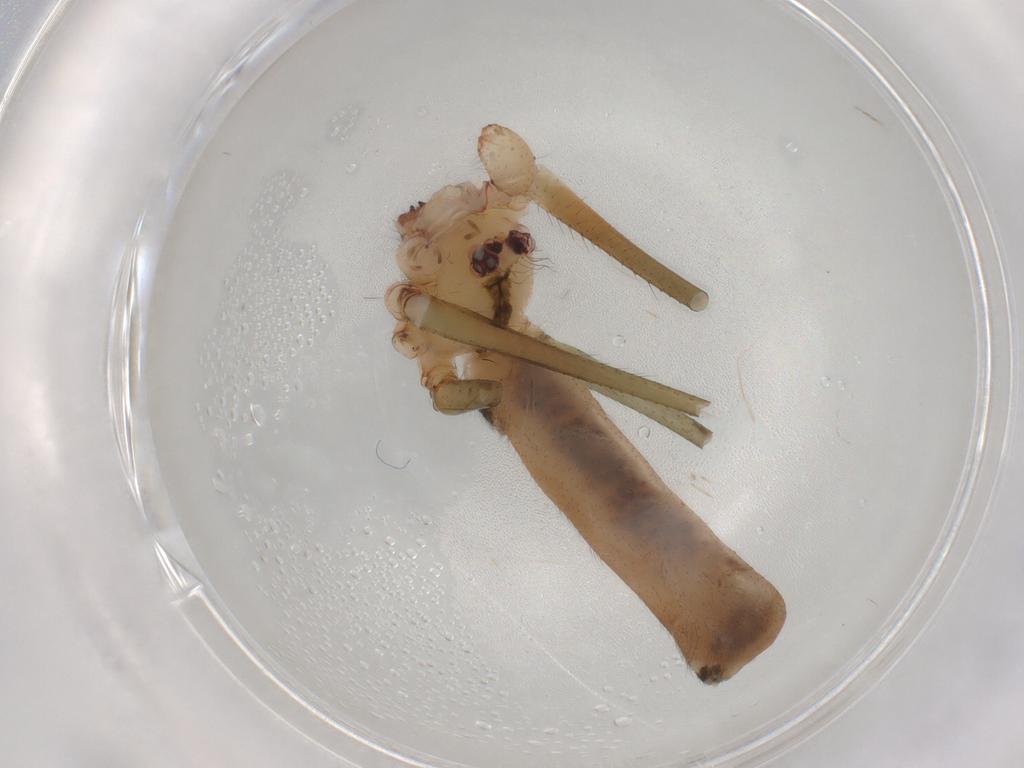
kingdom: Animalia
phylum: Arthropoda
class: Arachnida
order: Araneae
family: Pholcidae
